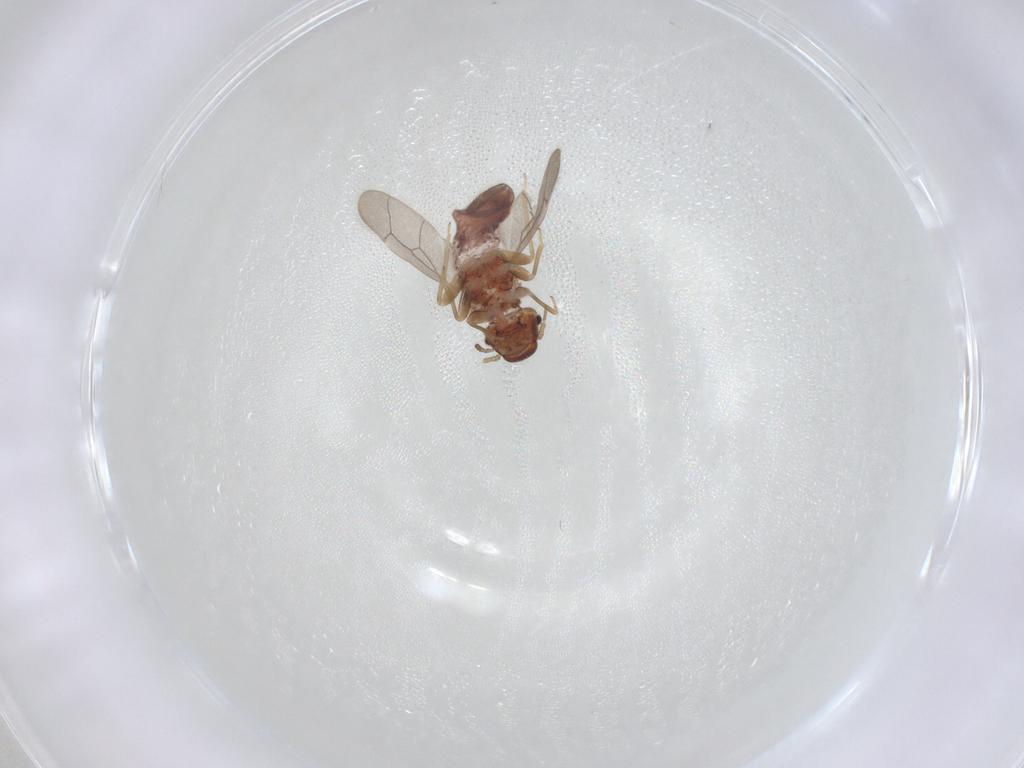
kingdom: Animalia
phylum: Arthropoda
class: Insecta
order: Psocodea
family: Archipsocidae
